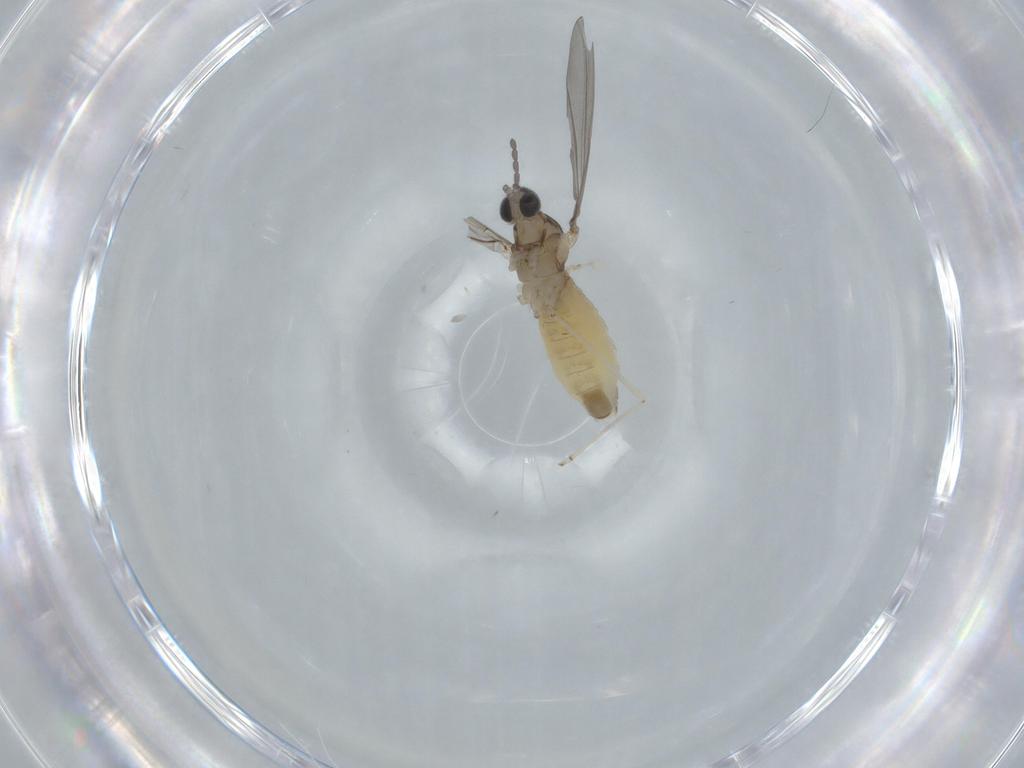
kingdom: Animalia
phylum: Arthropoda
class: Insecta
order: Diptera
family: Cecidomyiidae
